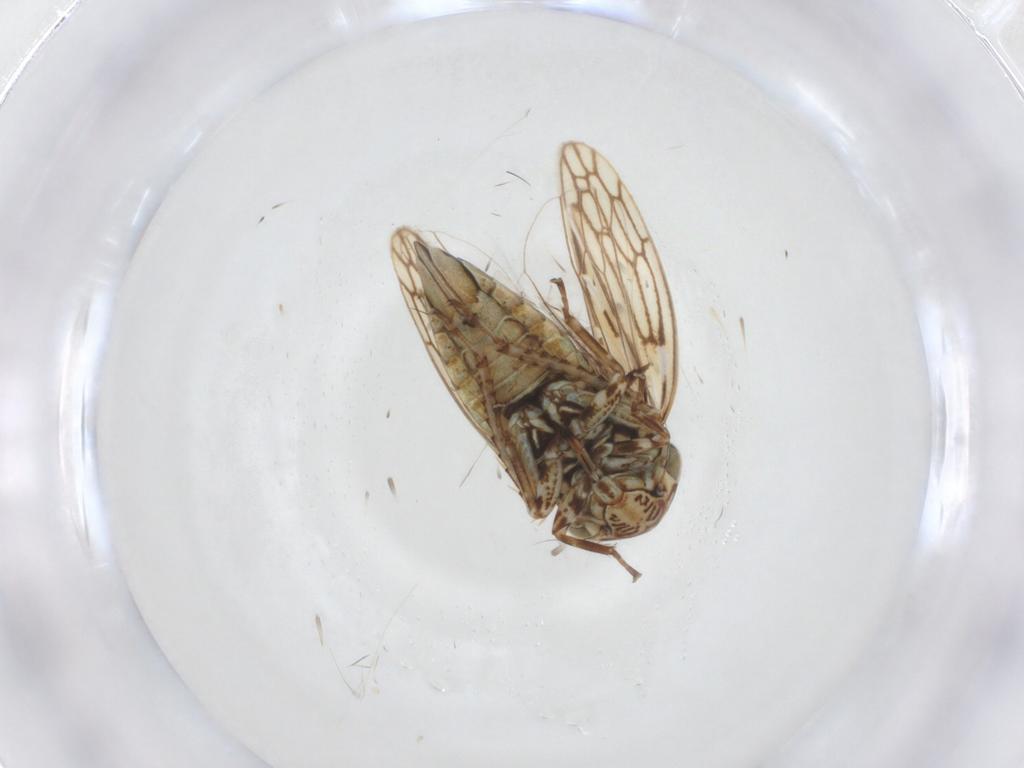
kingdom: Animalia
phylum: Arthropoda
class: Insecta
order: Hemiptera
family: Cicadellidae
